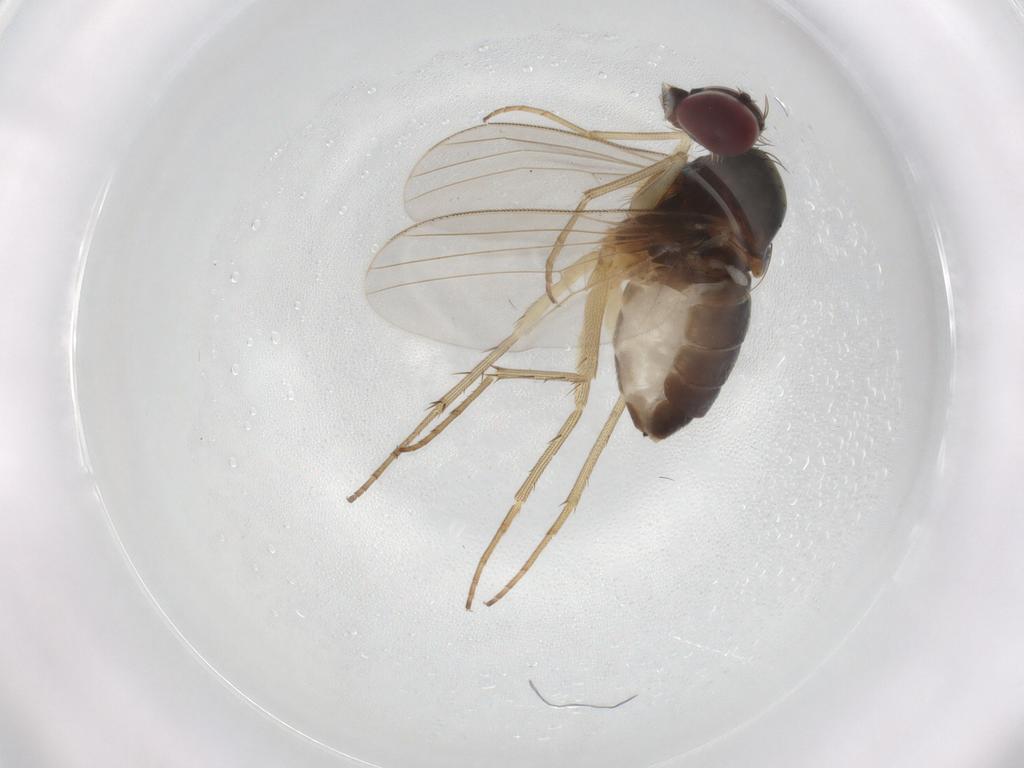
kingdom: Animalia
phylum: Arthropoda
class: Insecta
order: Diptera
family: Dolichopodidae
